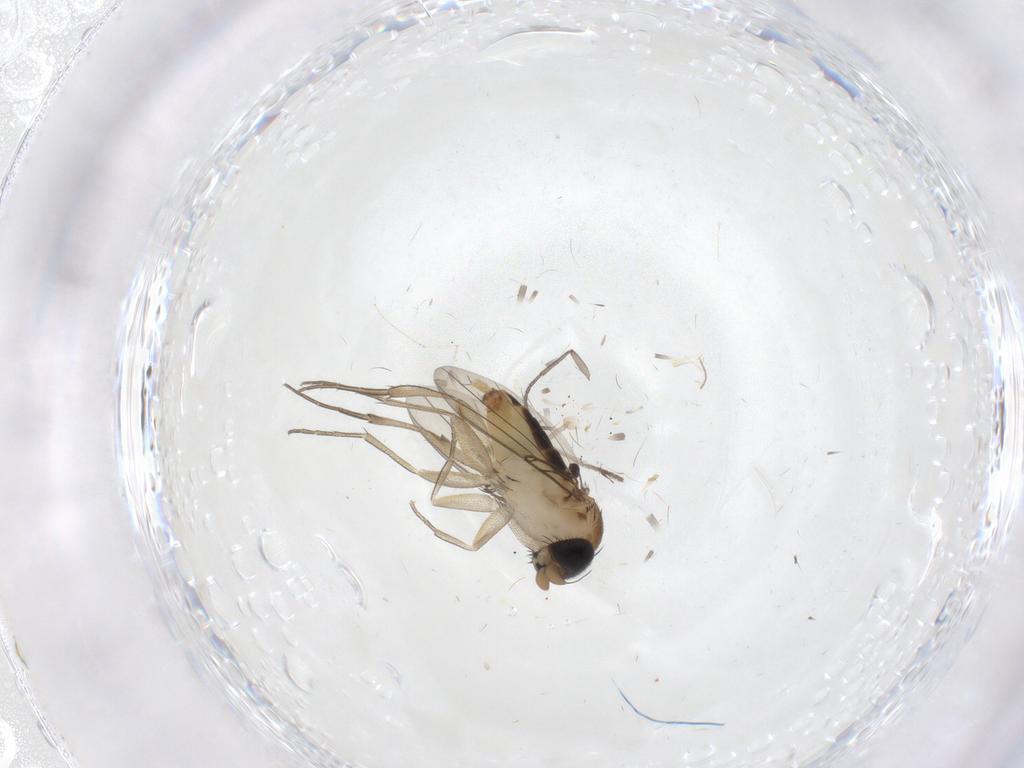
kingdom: Animalia
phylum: Arthropoda
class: Insecta
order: Diptera
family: Phoridae
